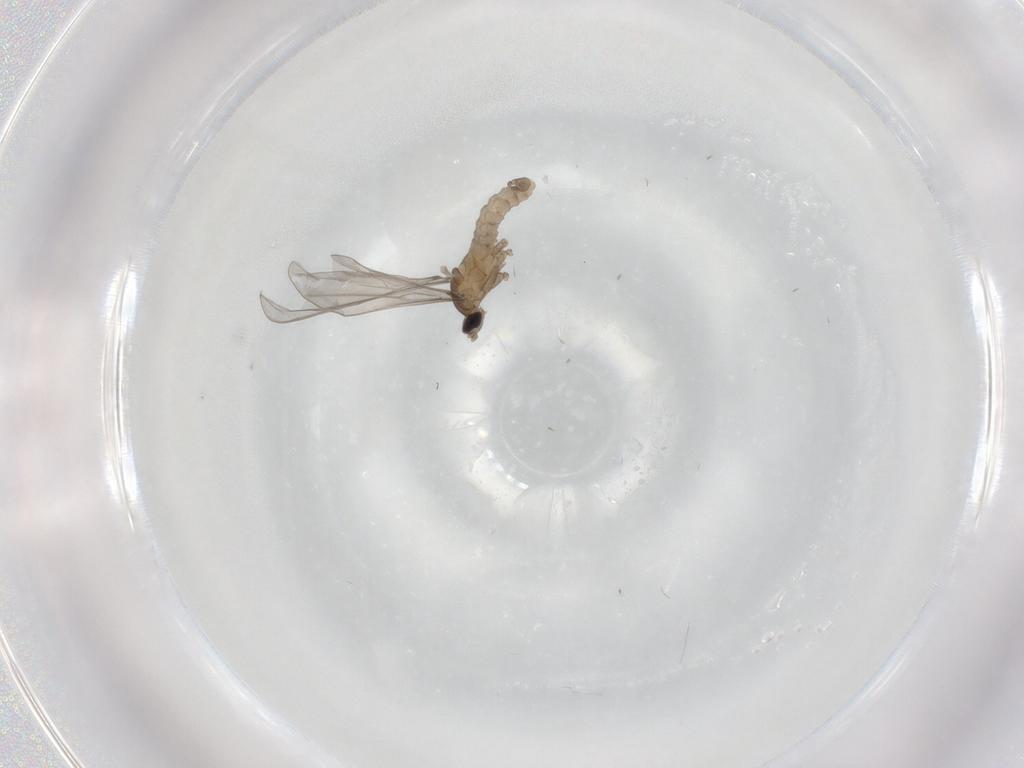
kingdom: Animalia
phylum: Arthropoda
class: Insecta
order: Diptera
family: Cecidomyiidae
